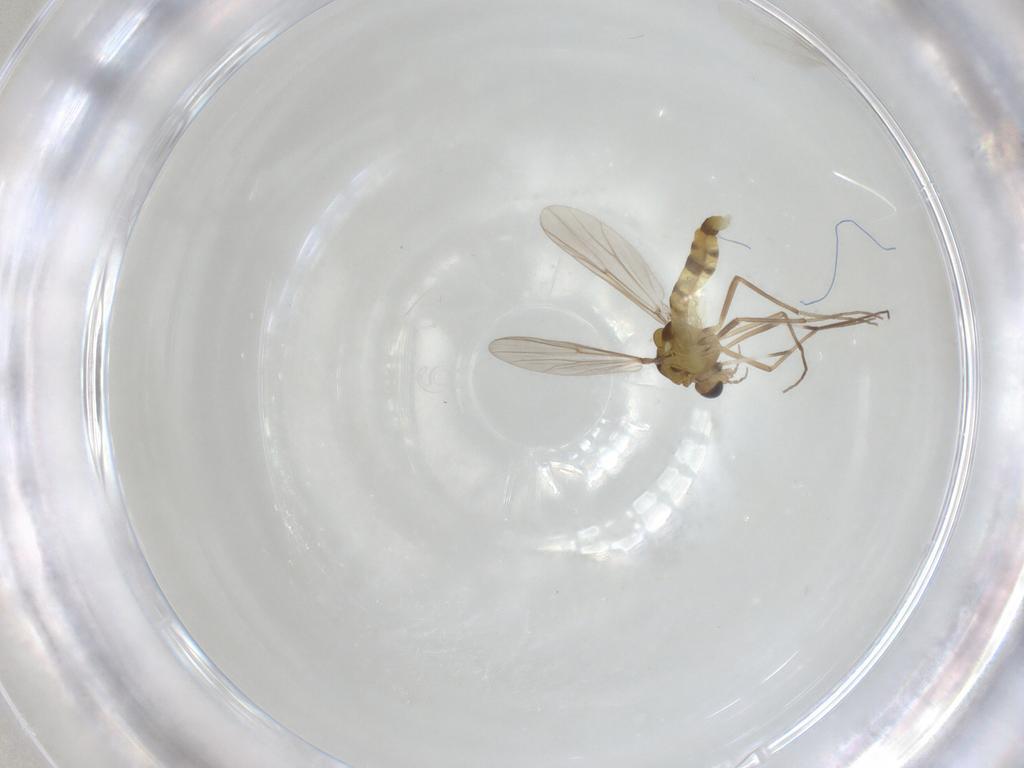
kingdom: Animalia
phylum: Arthropoda
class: Insecta
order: Diptera
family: Chironomidae
